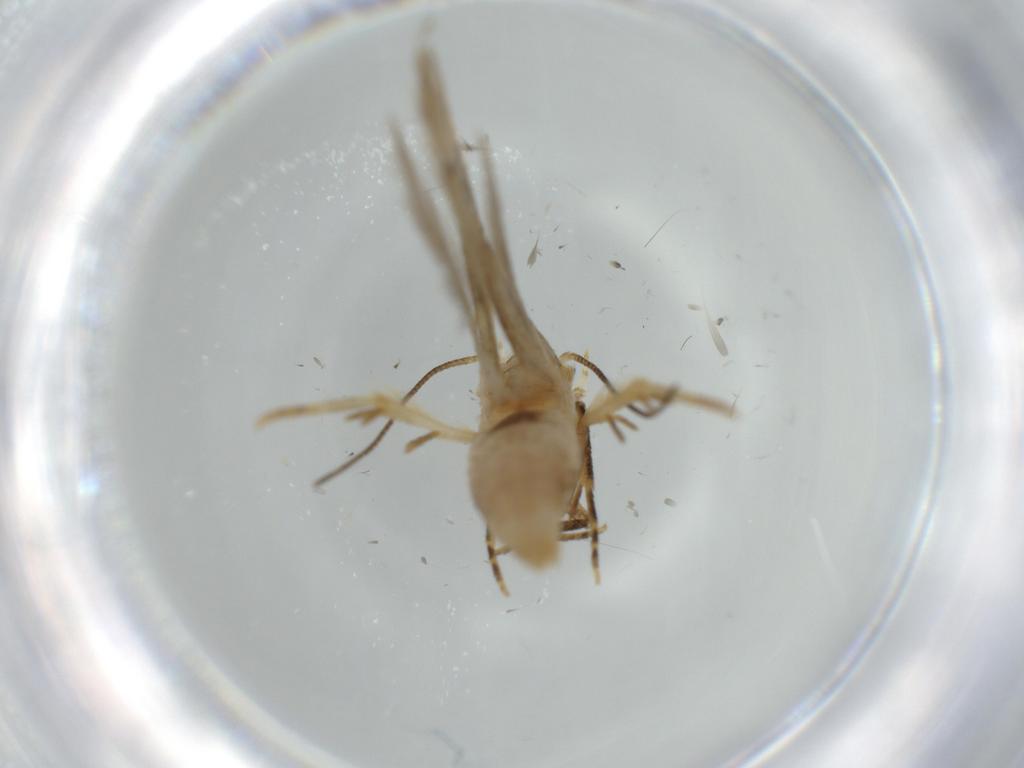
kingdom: Animalia
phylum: Arthropoda
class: Insecta
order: Lepidoptera
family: Coleophoridae
